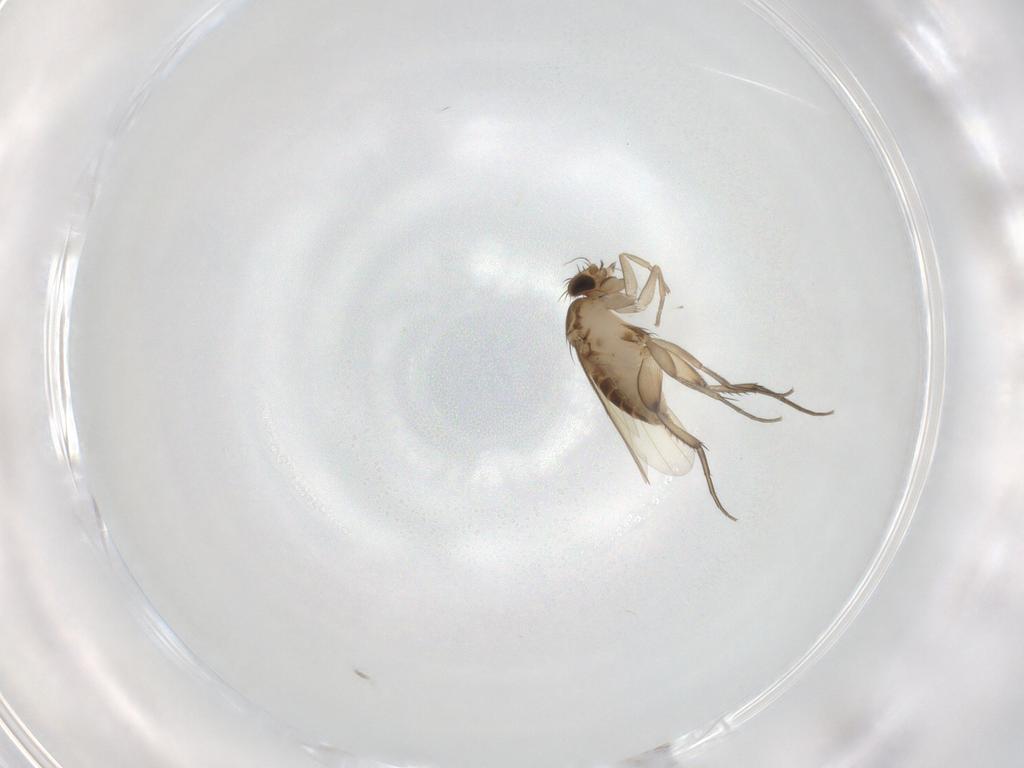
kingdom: Animalia
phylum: Arthropoda
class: Insecta
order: Diptera
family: Phoridae
